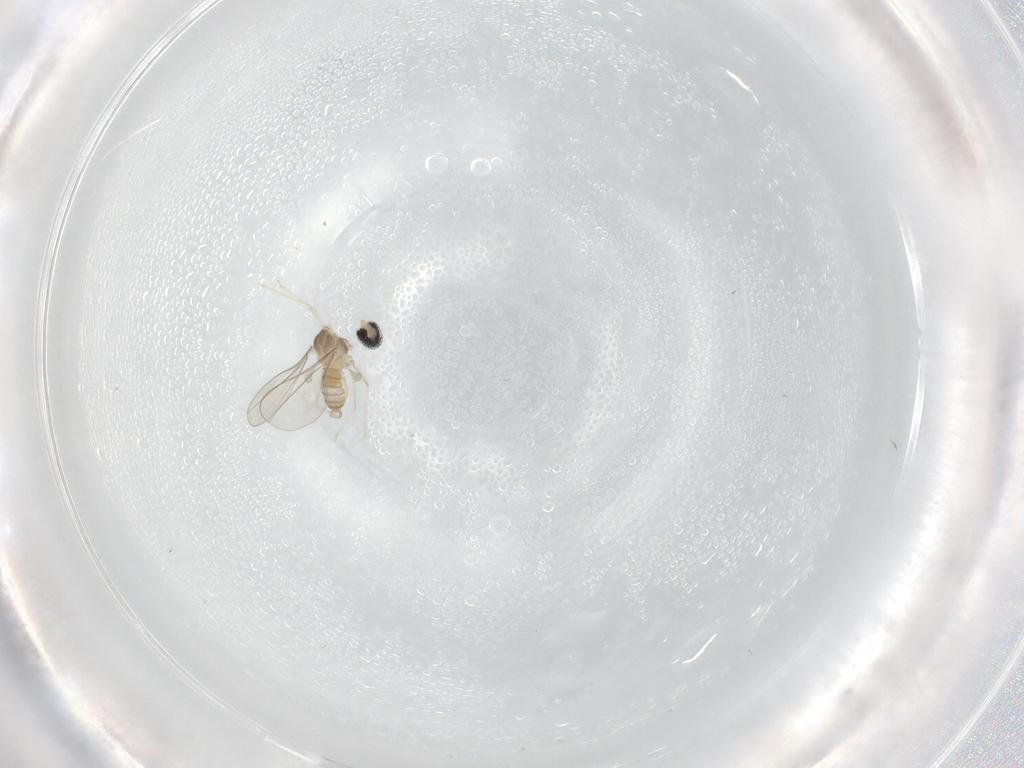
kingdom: Animalia
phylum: Arthropoda
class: Insecta
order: Diptera
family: Cecidomyiidae
